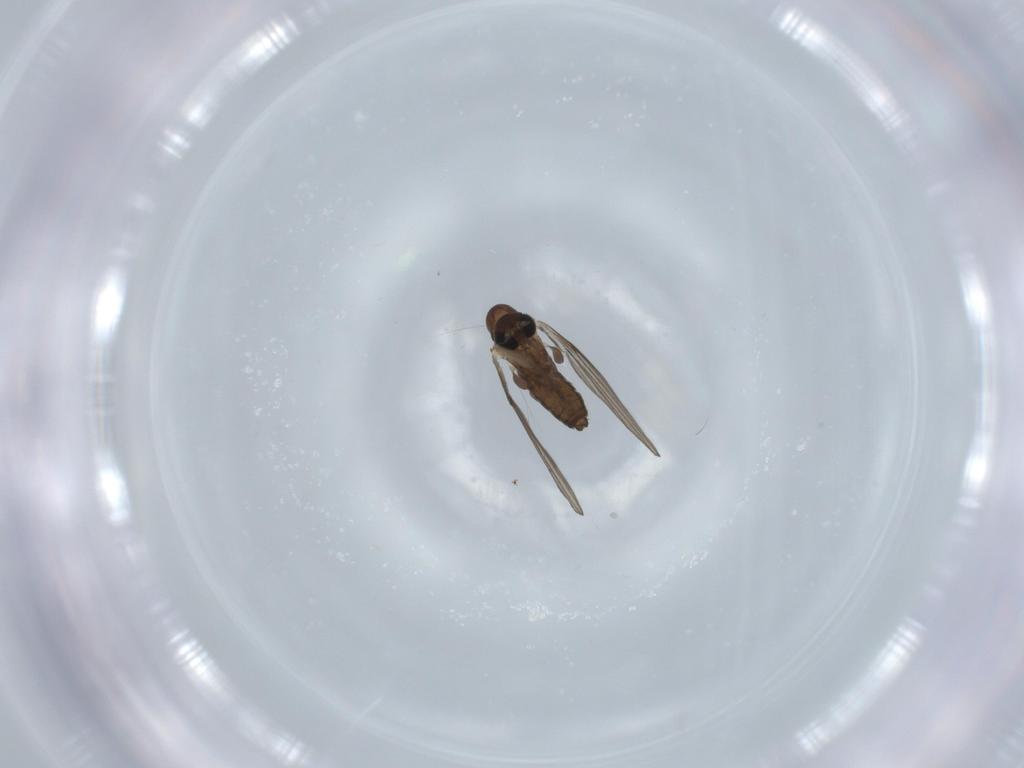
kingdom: Animalia
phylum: Arthropoda
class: Insecta
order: Diptera
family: Psychodidae
